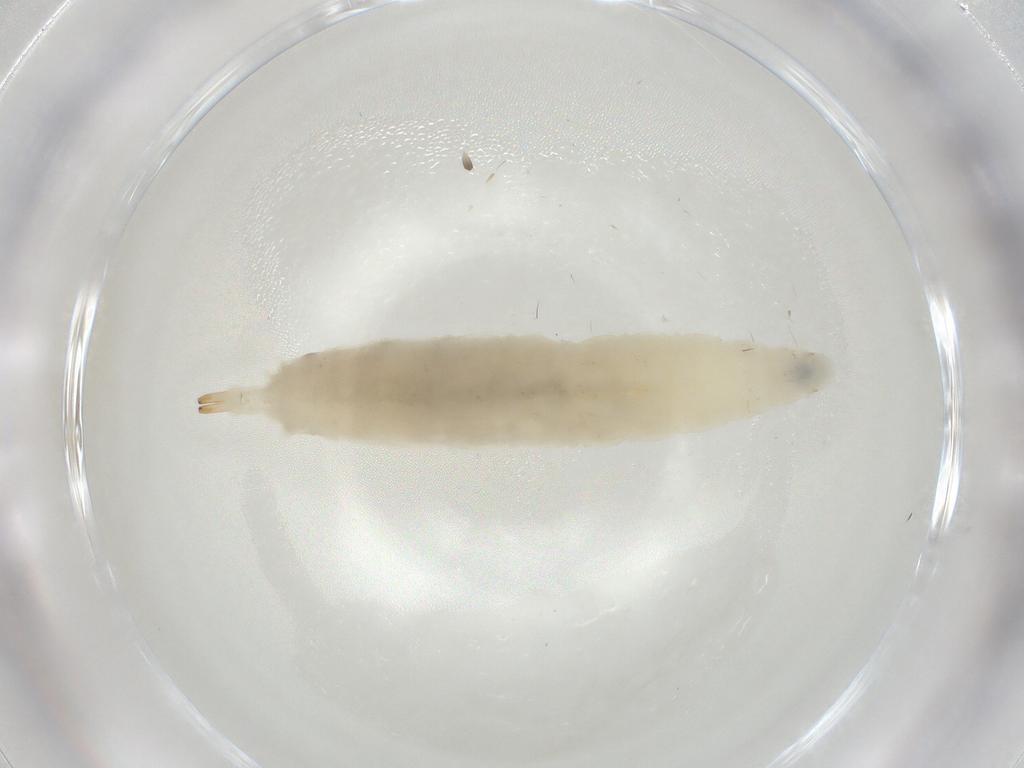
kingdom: Animalia
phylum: Arthropoda
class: Insecta
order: Diptera
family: Drosophilidae
